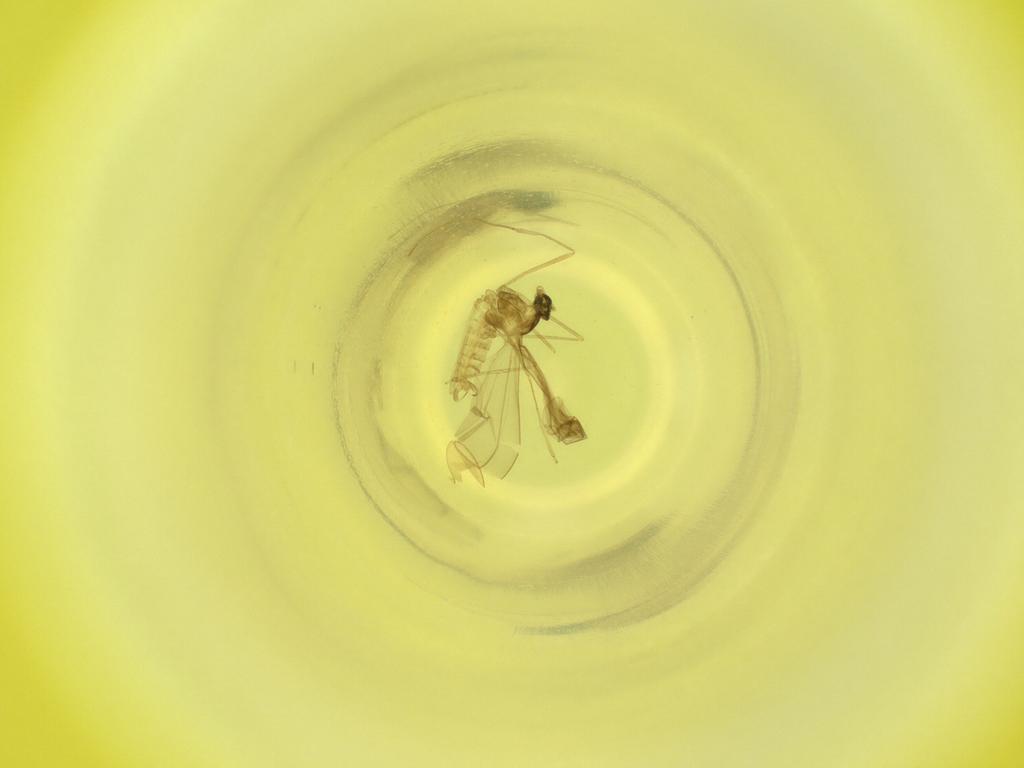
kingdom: Animalia
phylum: Arthropoda
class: Insecta
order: Diptera
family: Cecidomyiidae
